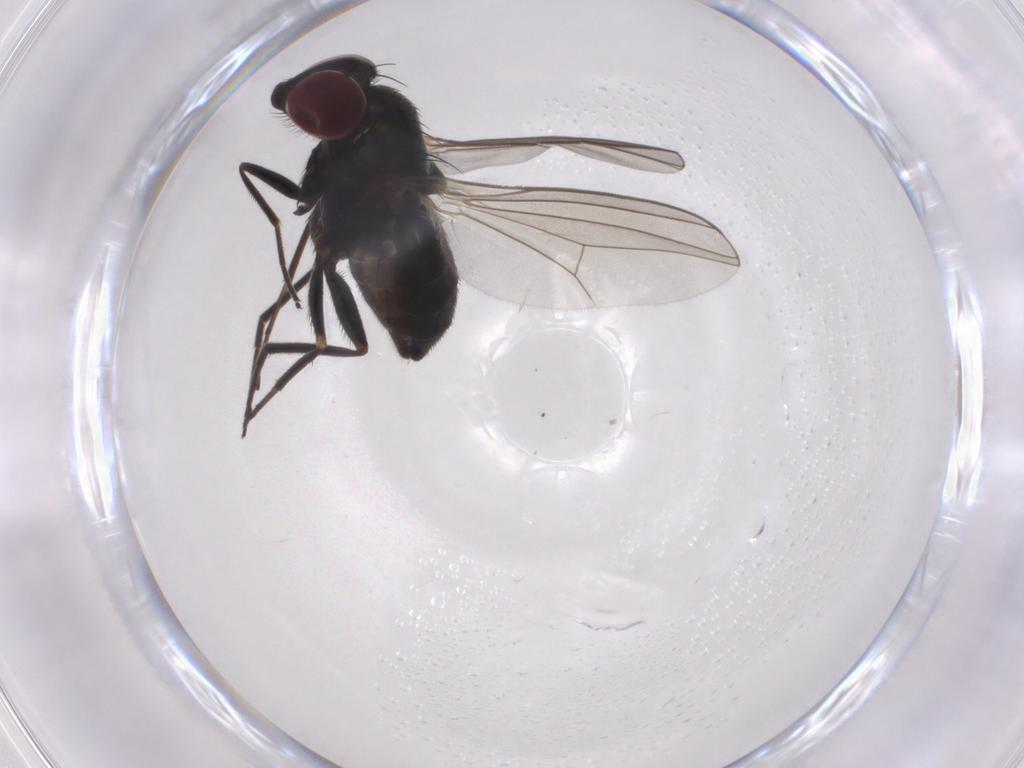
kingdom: Animalia
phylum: Arthropoda
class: Insecta
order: Diptera
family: Dolichopodidae
